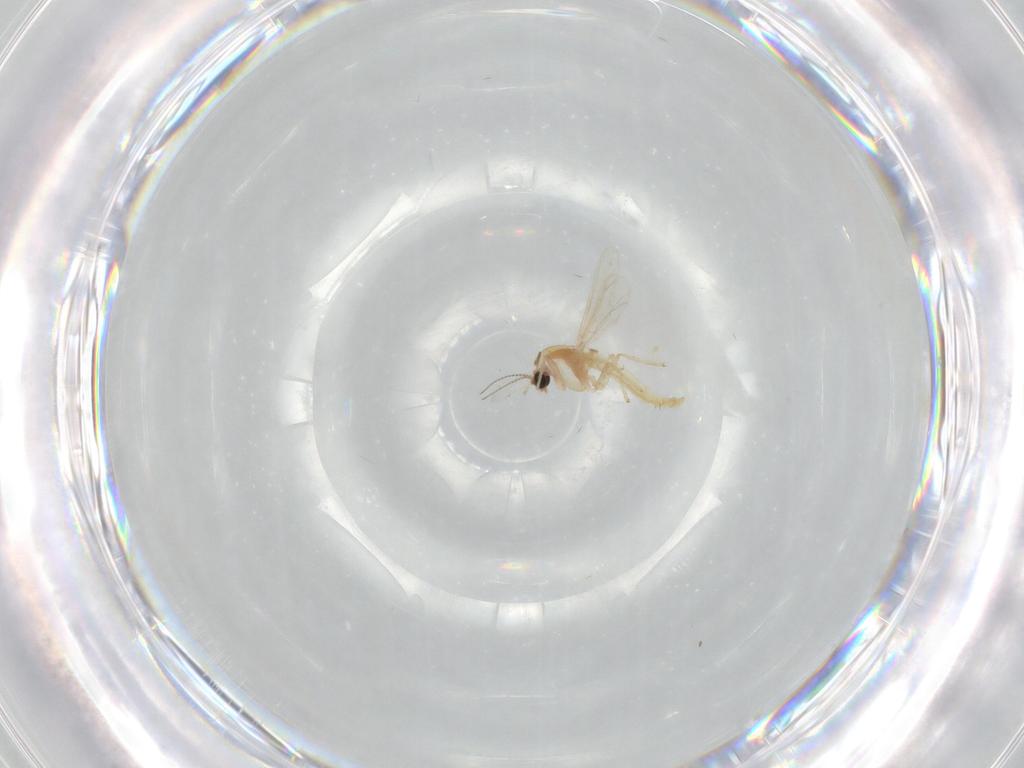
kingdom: Animalia
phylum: Arthropoda
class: Insecta
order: Diptera
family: Chironomidae
